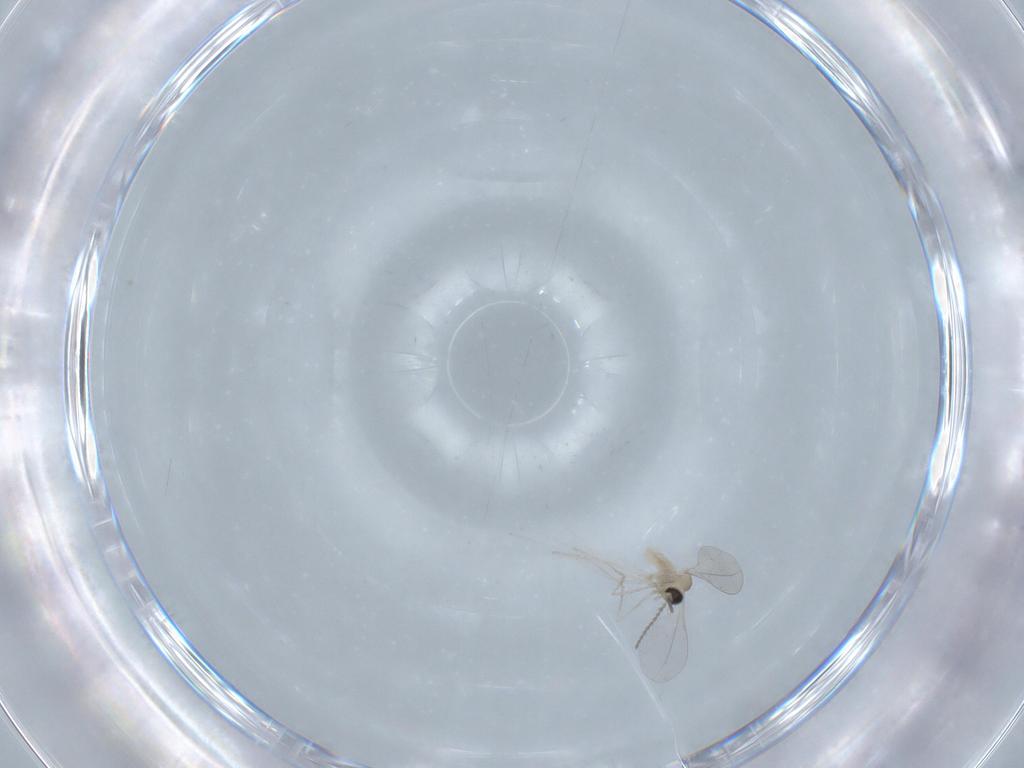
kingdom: Animalia
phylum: Arthropoda
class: Insecta
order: Diptera
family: Cecidomyiidae
